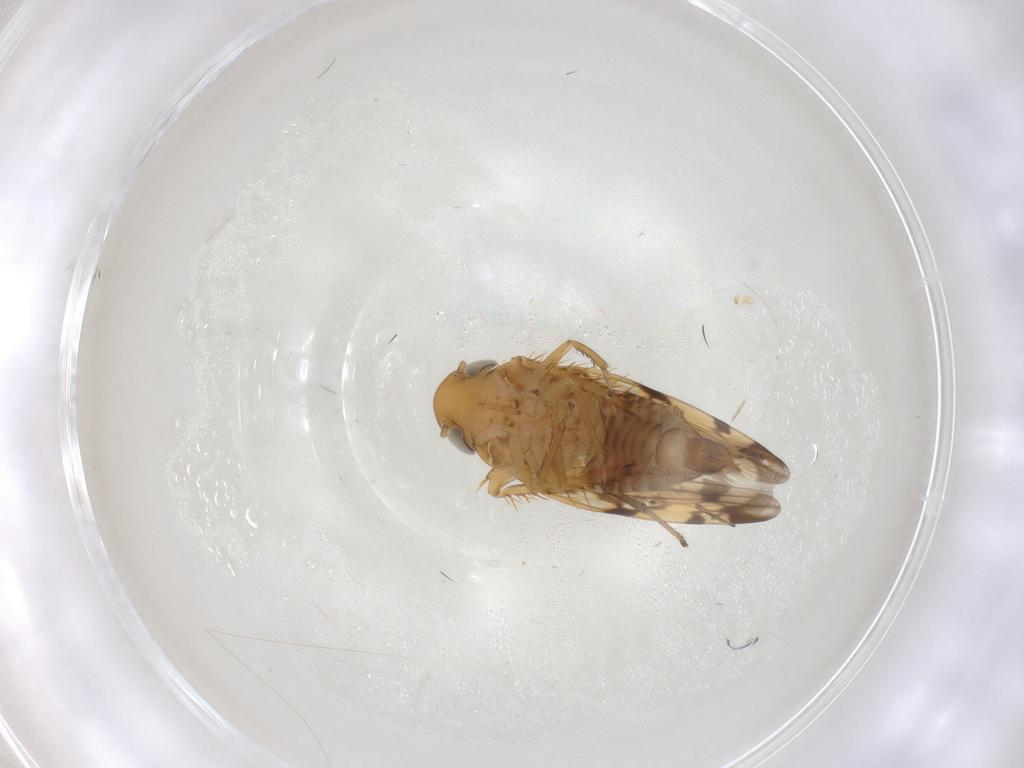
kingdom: Animalia
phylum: Arthropoda
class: Insecta
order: Hemiptera
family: Cicadellidae
